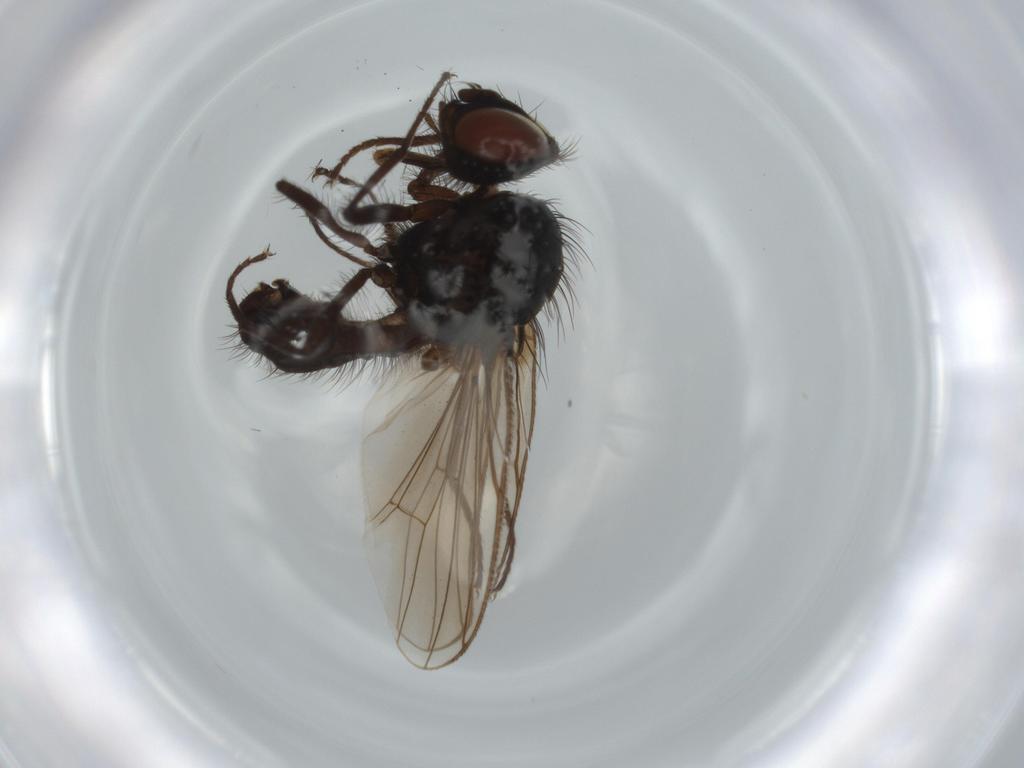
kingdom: Animalia
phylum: Arthropoda
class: Insecta
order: Diptera
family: Anthomyiidae
